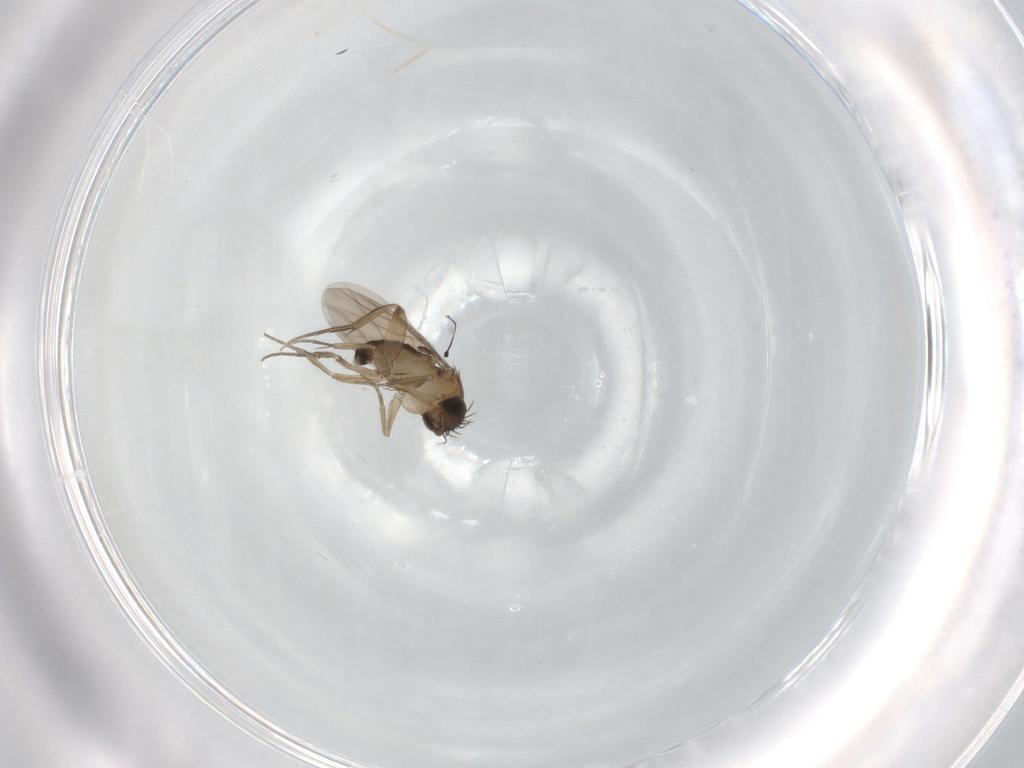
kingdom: Animalia
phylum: Arthropoda
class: Insecta
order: Diptera
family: Phoridae
